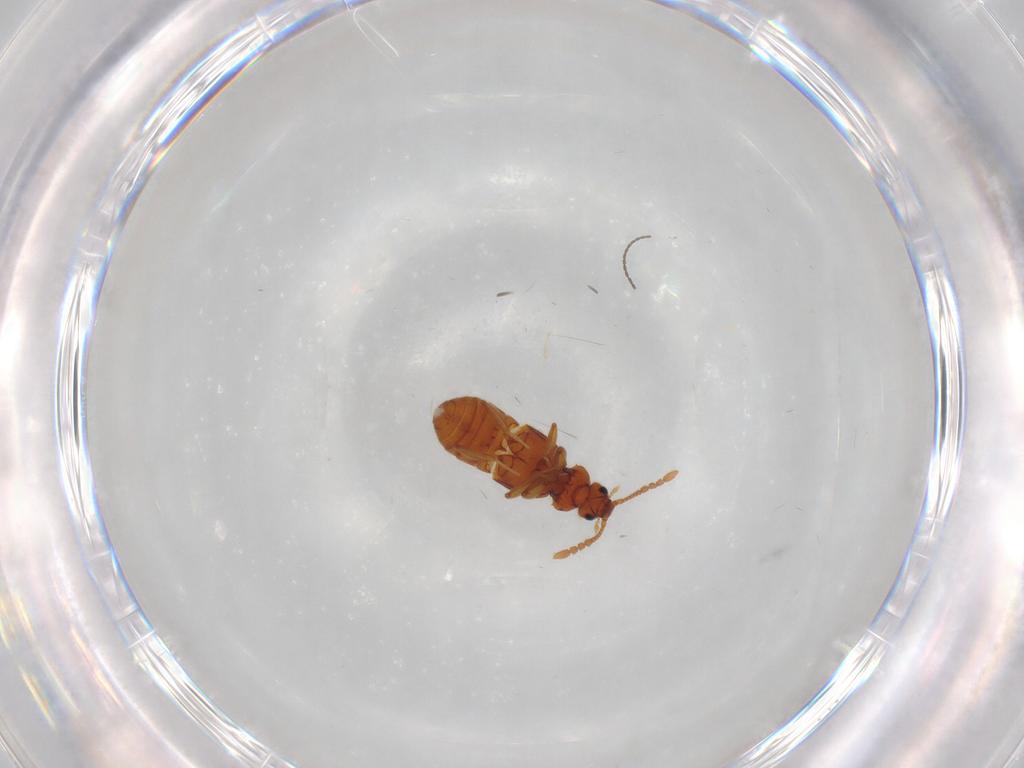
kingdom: Animalia
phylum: Arthropoda
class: Insecta
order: Coleoptera
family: Staphylinidae
